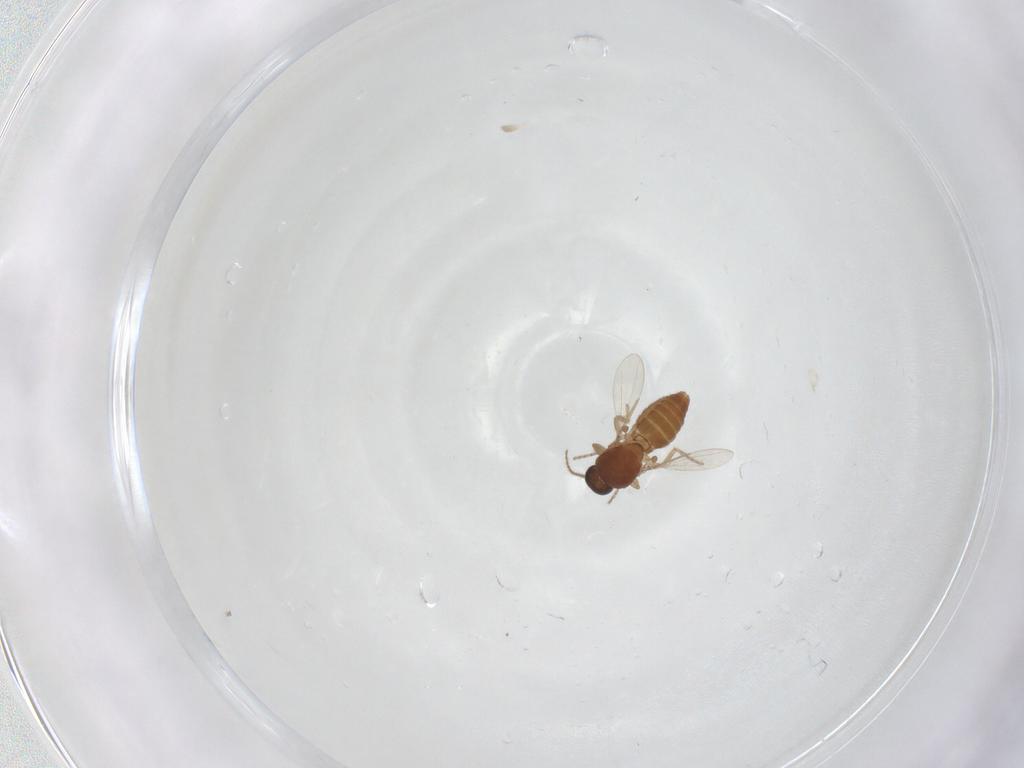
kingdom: Animalia
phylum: Arthropoda
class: Insecta
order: Diptera
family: Ceratopogonidae
